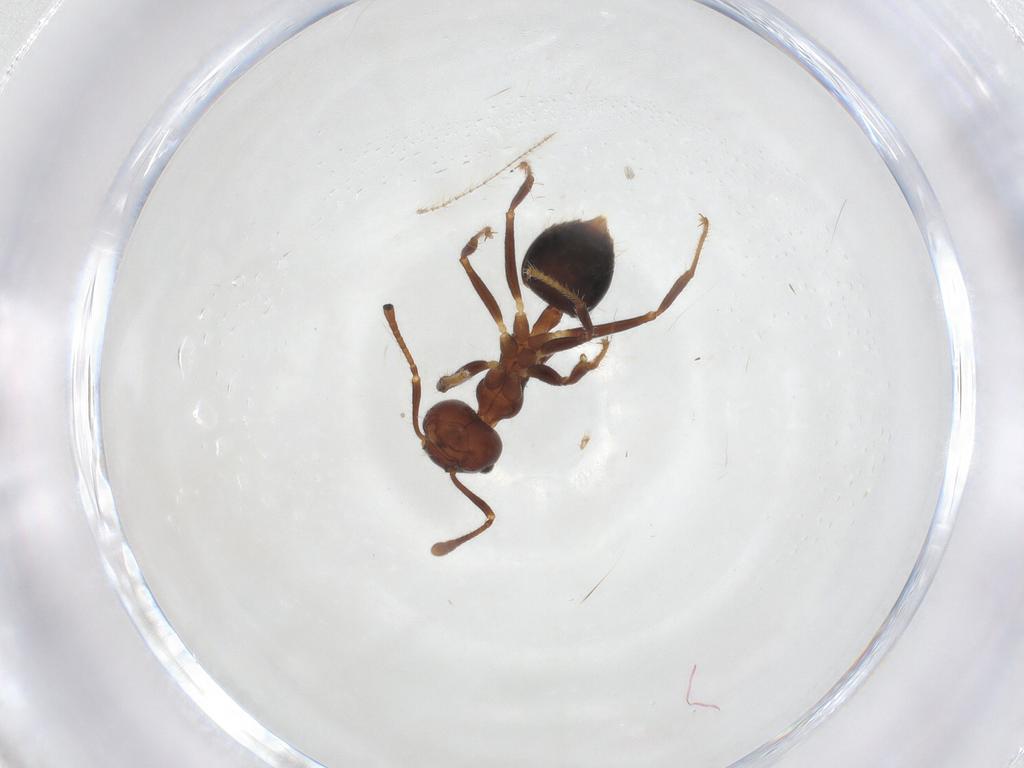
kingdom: Animalia
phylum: Arthropoda
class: Insecta
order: Hymenoptera
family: Formicidae
